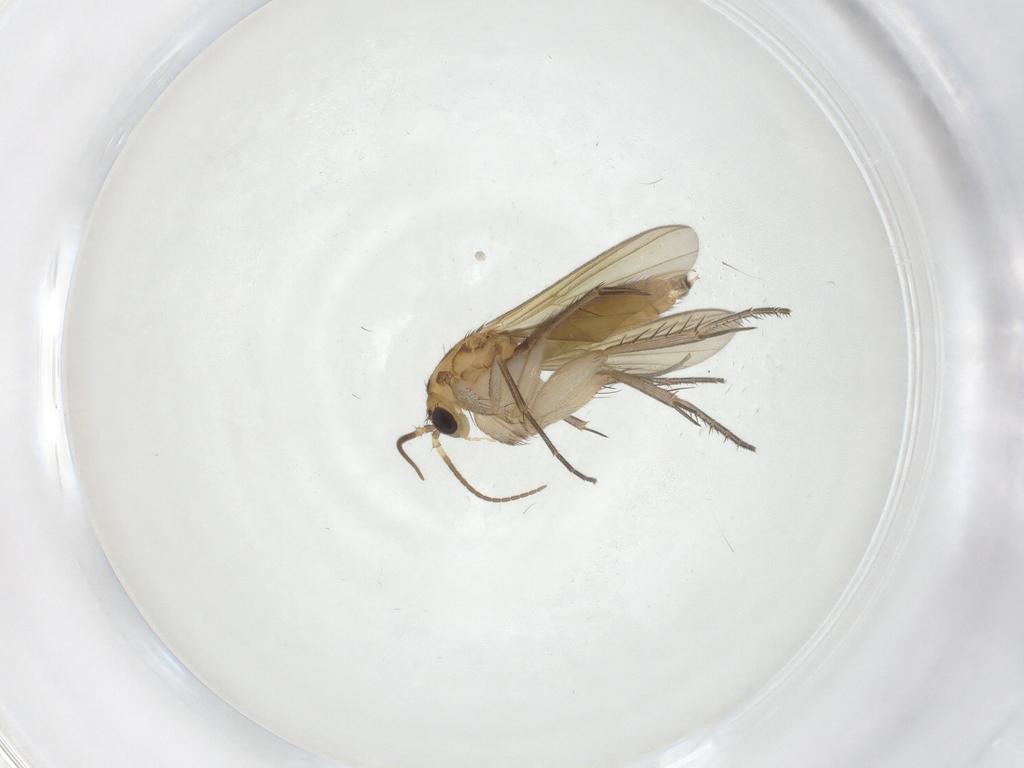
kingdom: Animalia
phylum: Arthropoda
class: Insecta
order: Diptera
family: Mycetophilidae
